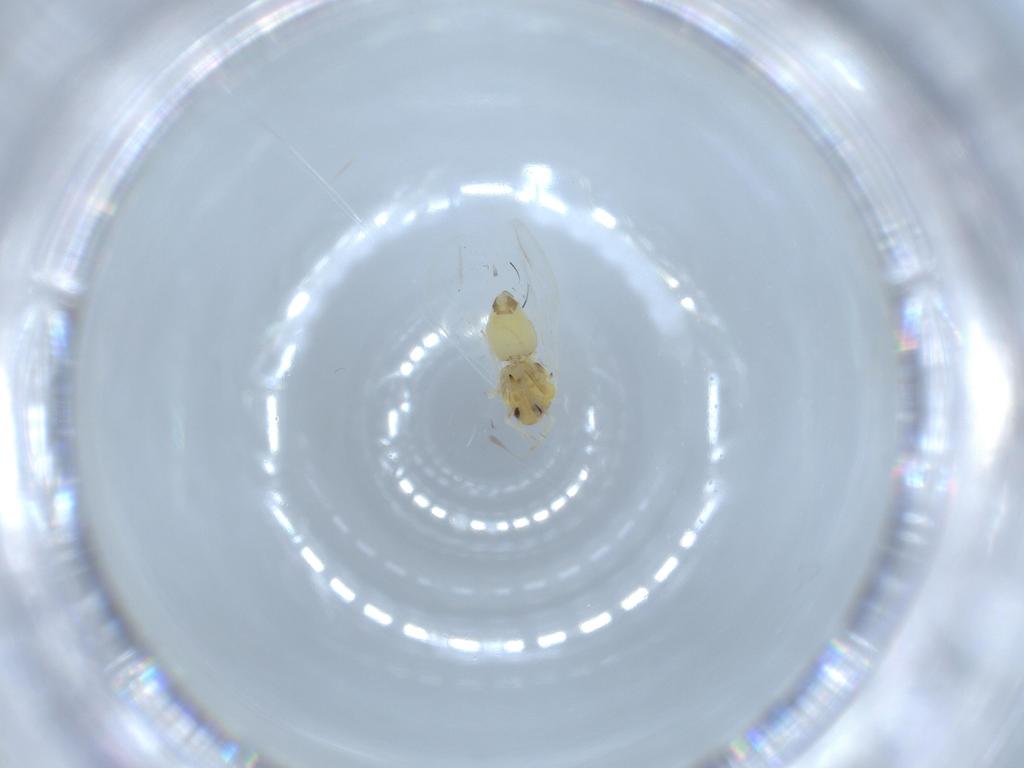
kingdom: Animalia
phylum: Arthropoda
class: Insecta
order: Hemiptera
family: Aleyrodidae
